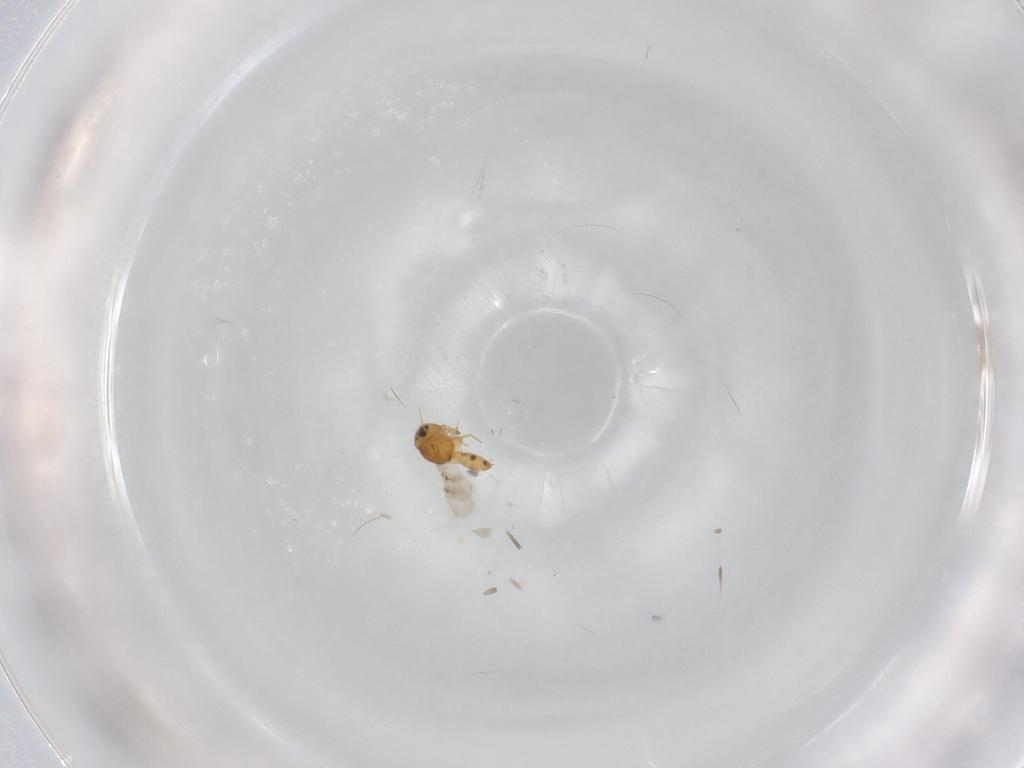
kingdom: Animalia
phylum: Arthropoda
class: Insecta
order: Hymenoptera
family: Scelionidae
